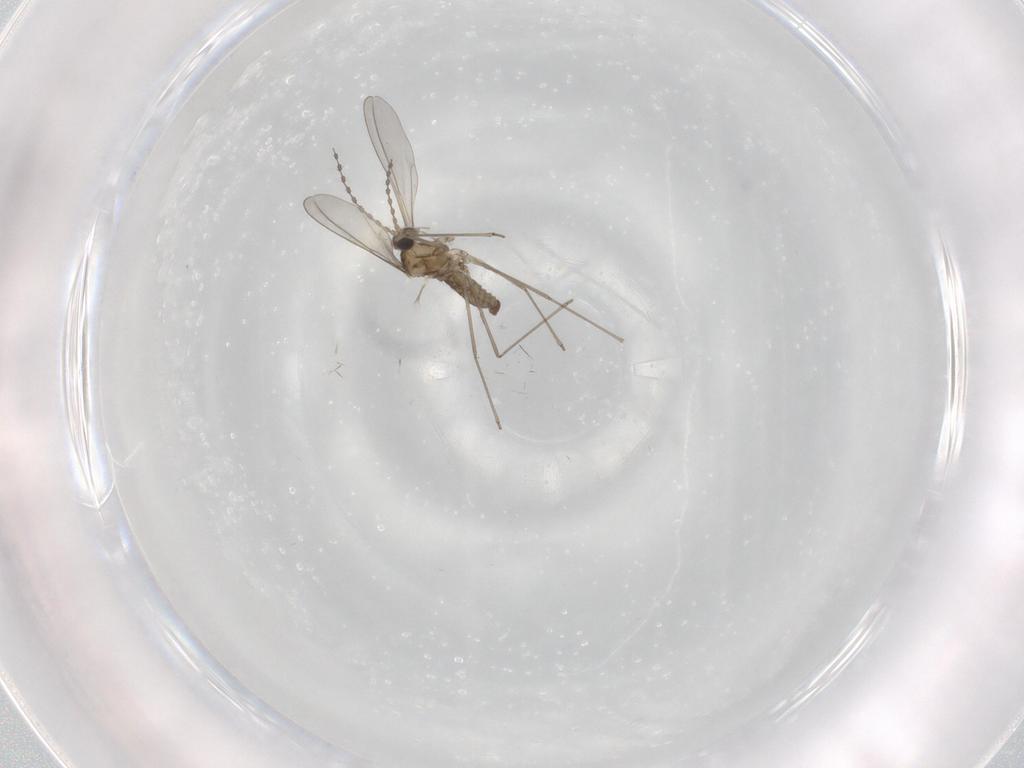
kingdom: Animalia
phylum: Arthropoda
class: Insecta
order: Diptera
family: Cecidomyiidae
